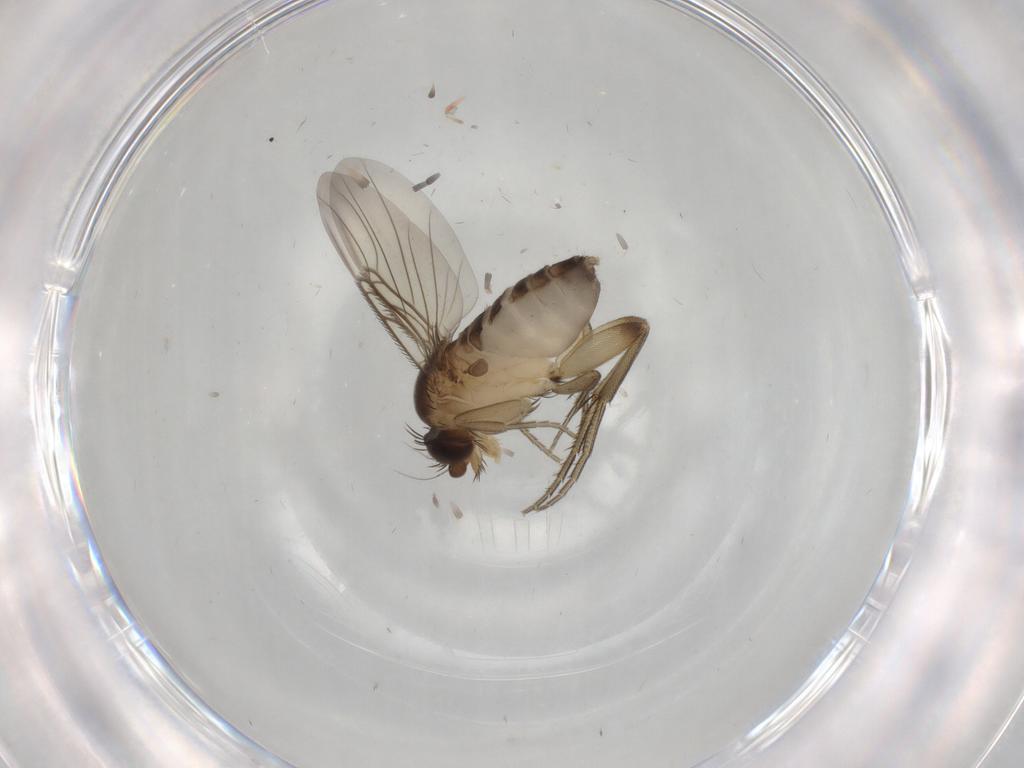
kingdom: Animalia
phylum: Arthropoda
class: Insecta
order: Diptera
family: Phoridae
